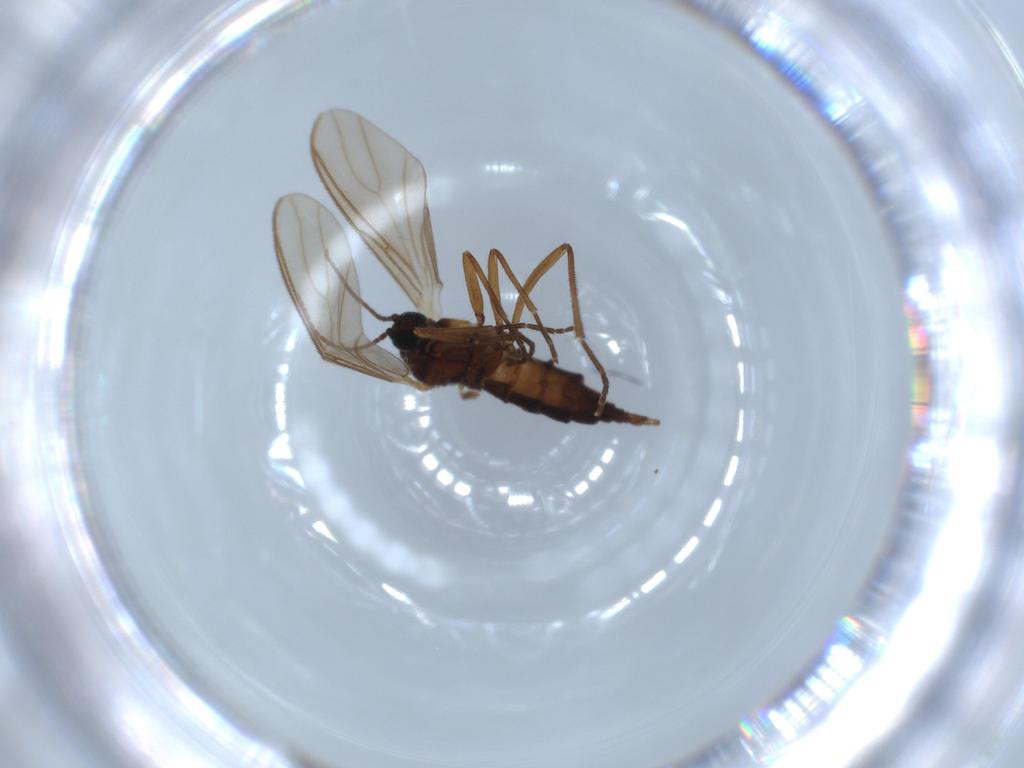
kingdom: Animalia
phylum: Arthropoda
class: Insecta
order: Diptera
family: Sciaridae
